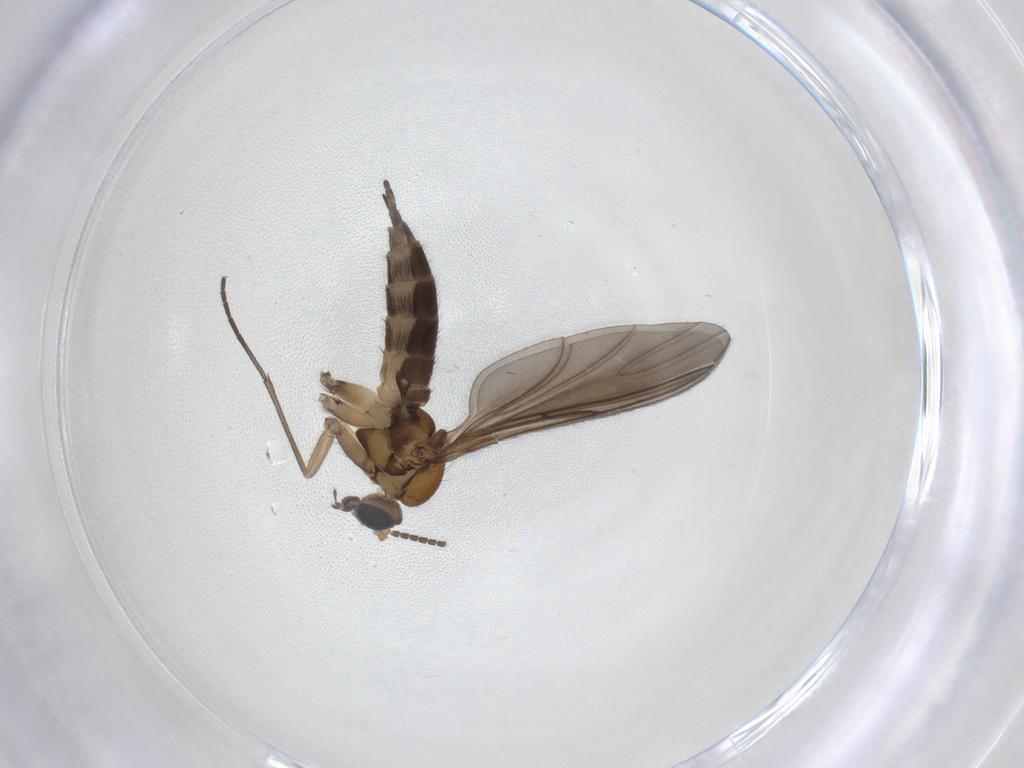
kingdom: Animalia
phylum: Arthropoda
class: Insecta
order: Diptera
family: Sciaridae
